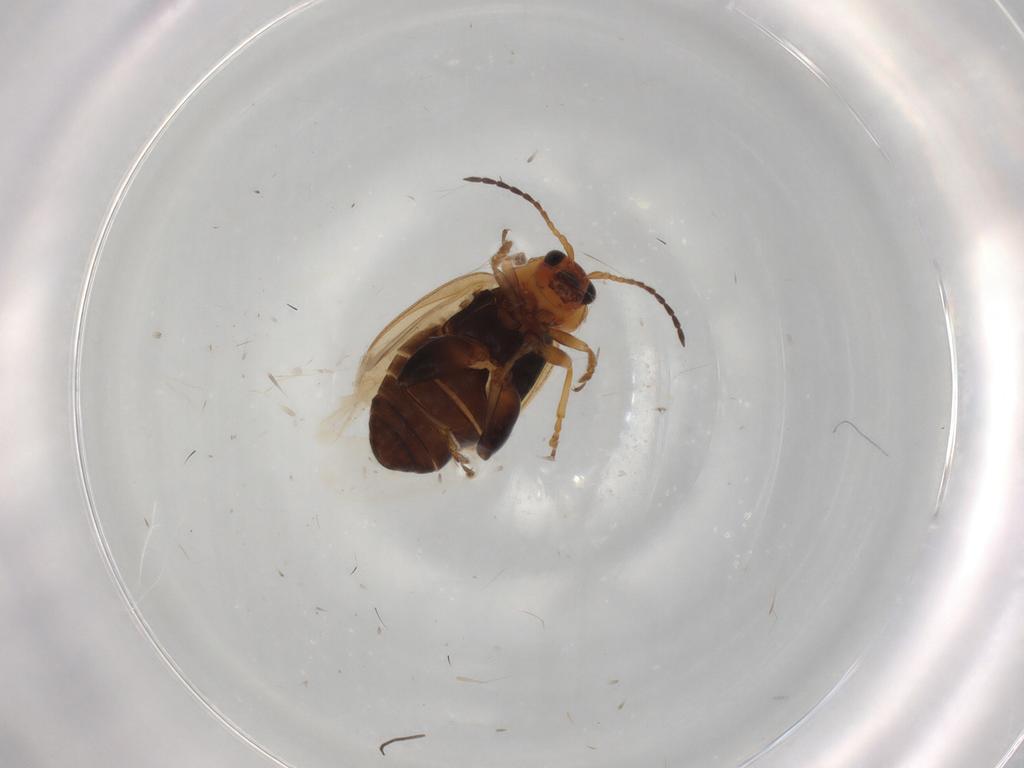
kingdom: Animalia
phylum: Arthropoda
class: Insecta
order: Coleoptera
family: Chrysomelidae
